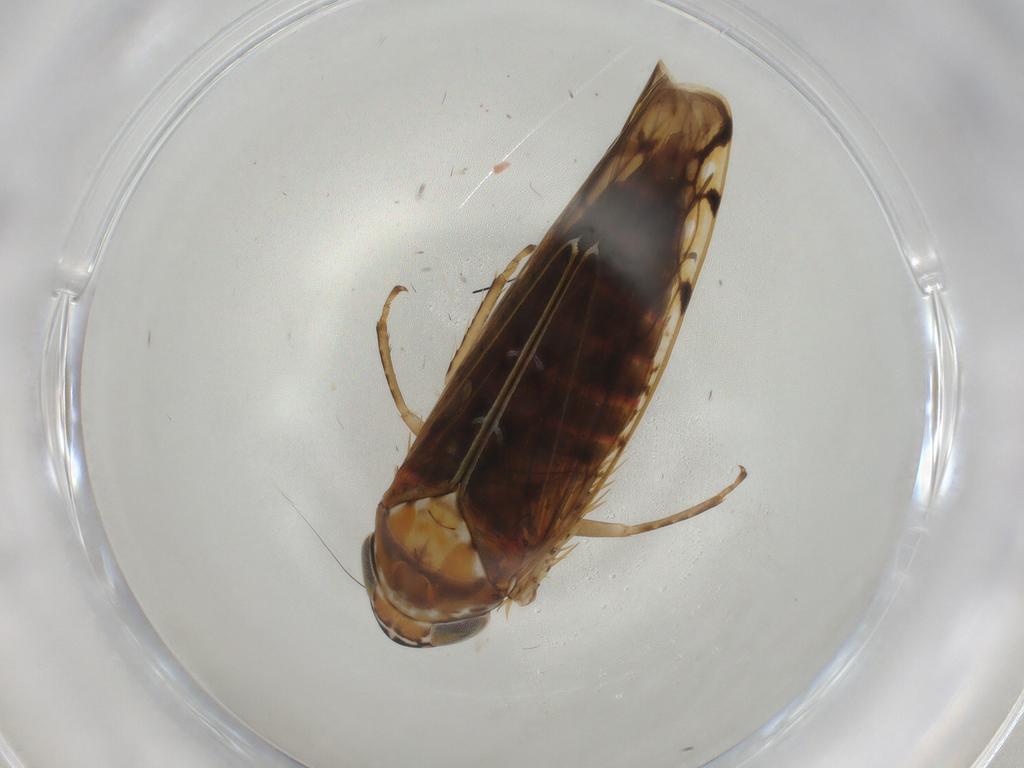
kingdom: Animalia
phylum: Arthropoda
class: Insecta
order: Hemiptera
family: Cicadellidae
